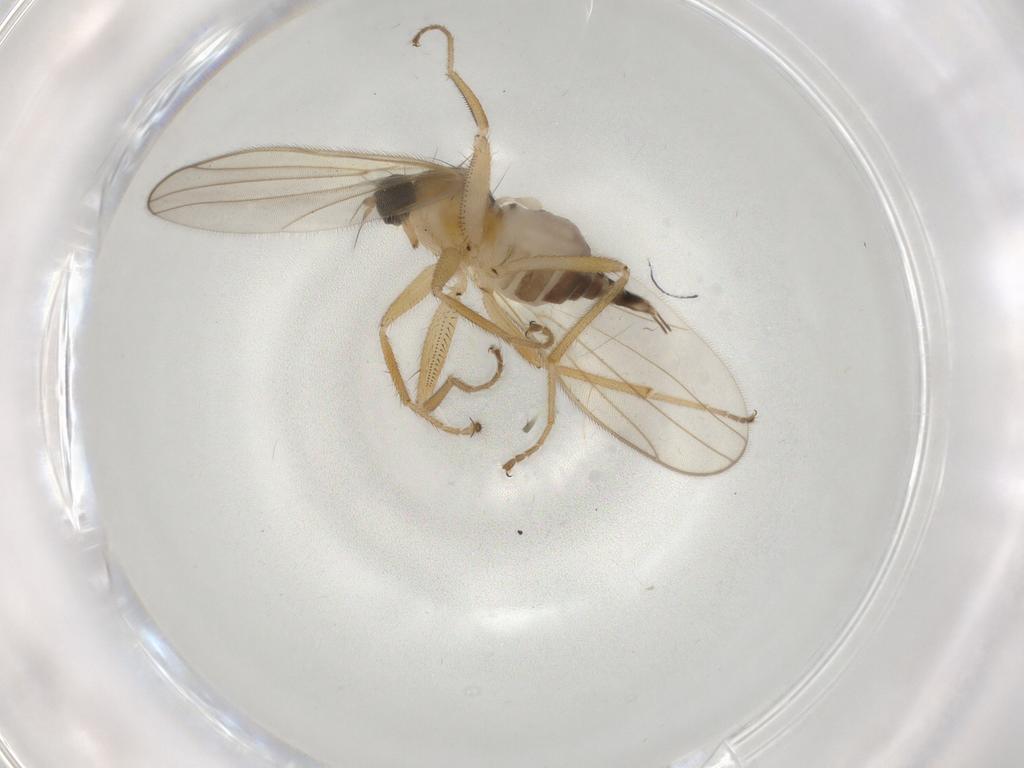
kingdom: Animalia
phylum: Arthropoda
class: Insecta
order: Diptera
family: Hybotidae
